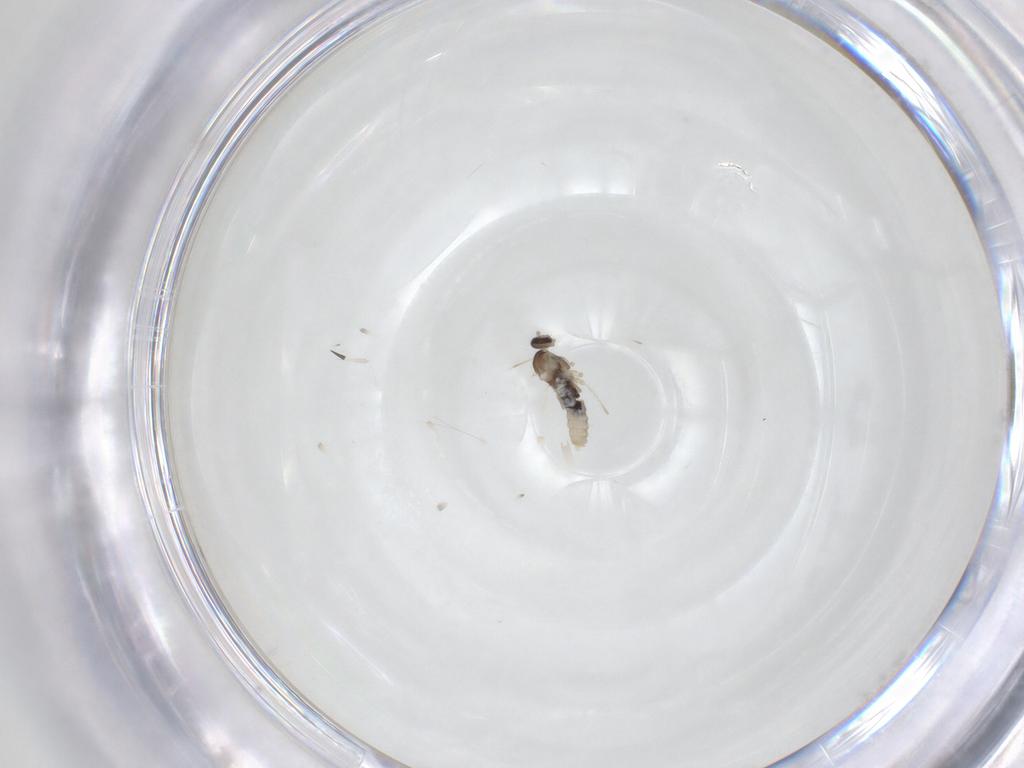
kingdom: Animalia
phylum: Arthropoda
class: Insecta
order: Diptera
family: Cecidomyiidae
